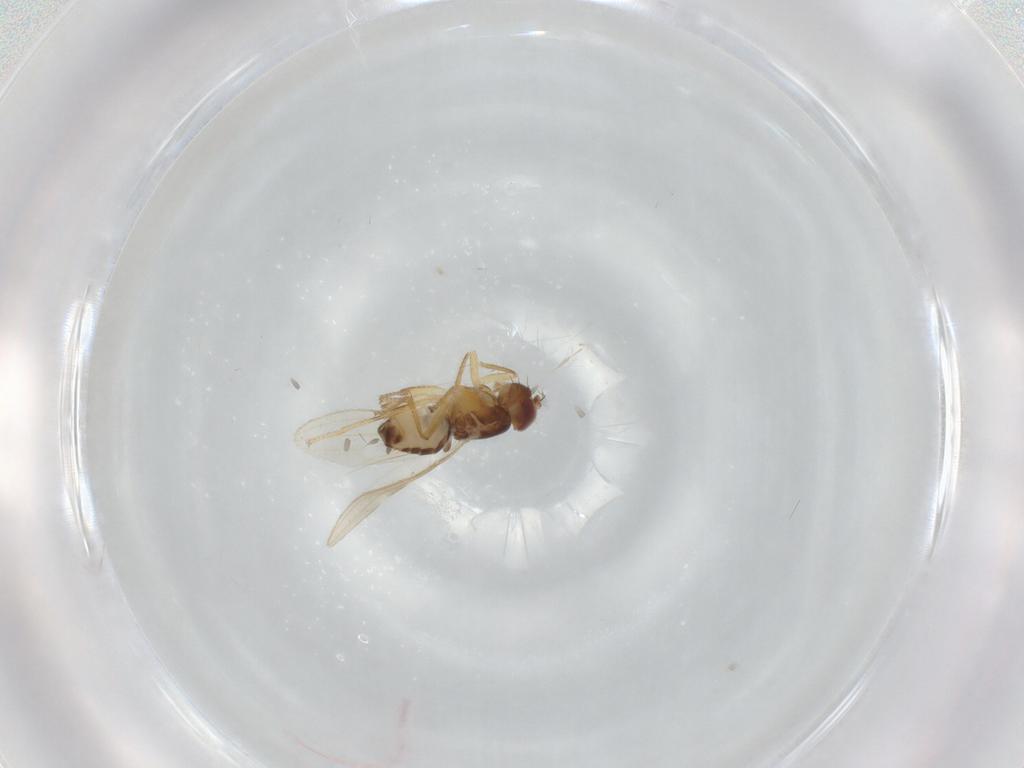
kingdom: Animalia
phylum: Arthropoda
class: Insecta
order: Diptera
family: Periscelididae
